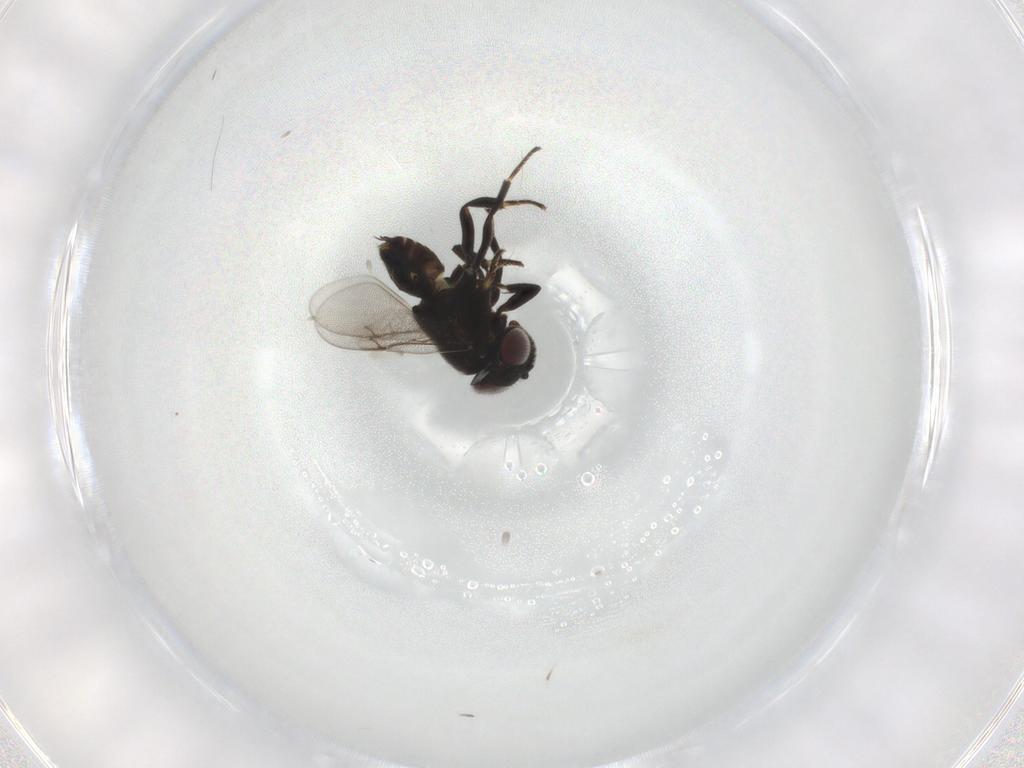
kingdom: Animalia
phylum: Arthropoda
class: Insecta
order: Hymenoptera
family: Encyrtidae
